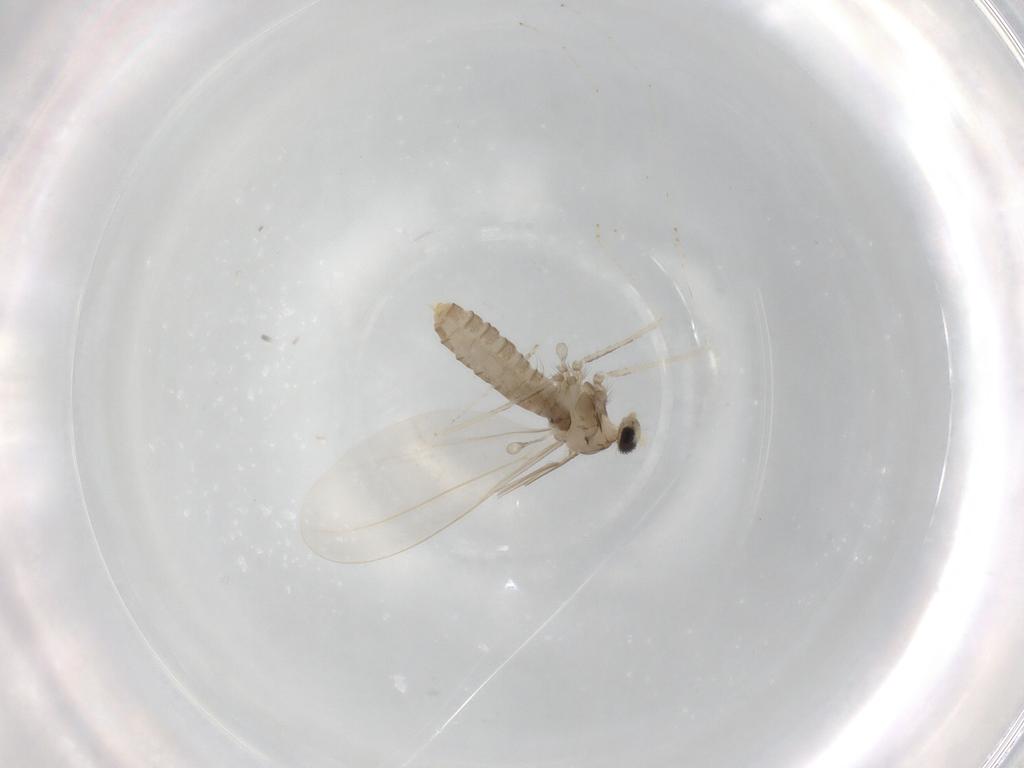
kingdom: Animalia
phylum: Arthropoda
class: Insecta
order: Diptera
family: Cecidomyiidae
